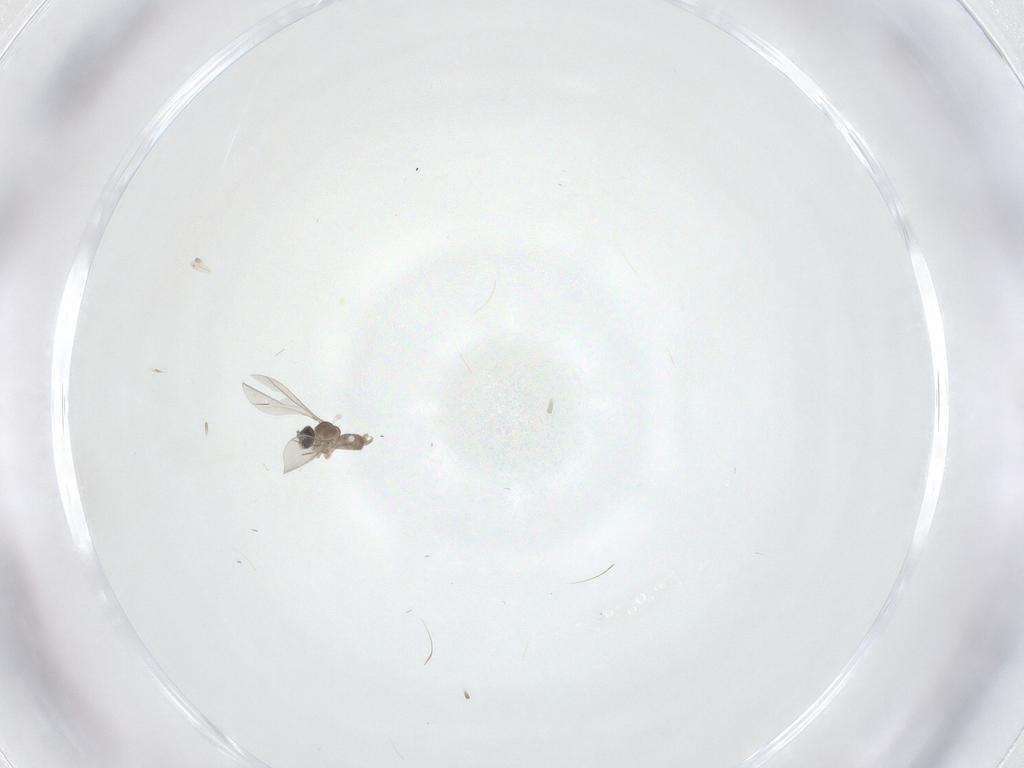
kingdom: Animalia
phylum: Arthropoda
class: Insecta
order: Diptera
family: Cecidomyiidae
